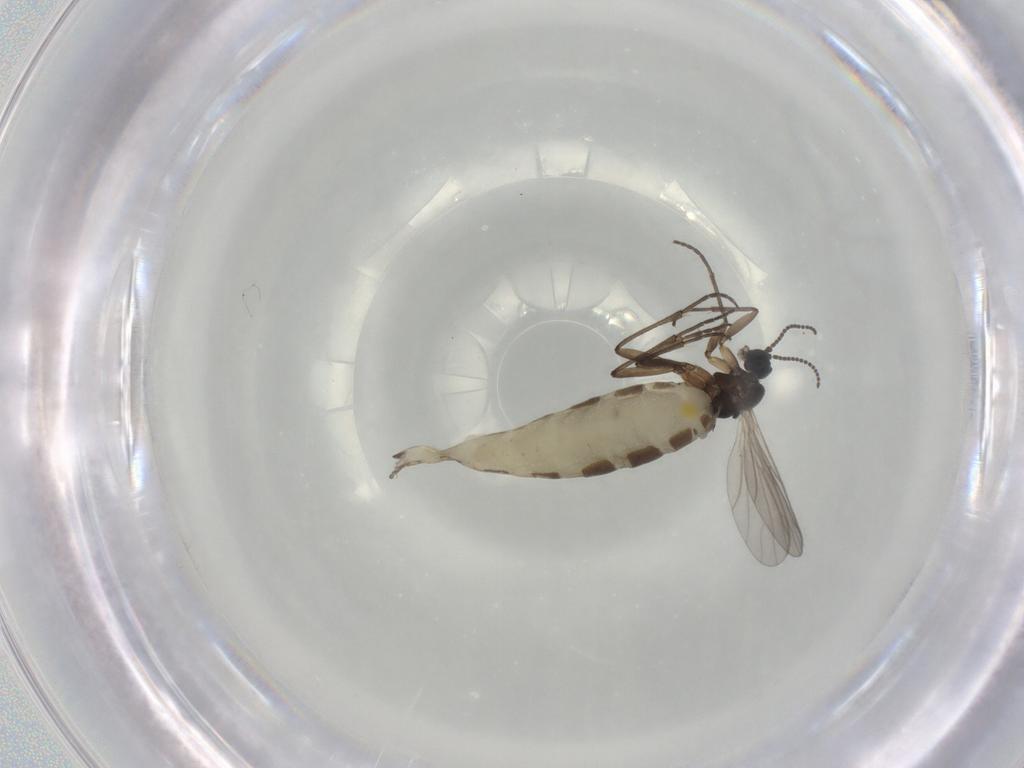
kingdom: Animalia
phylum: Arthropoda
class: Insecta
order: Diptera
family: Sciaridae
